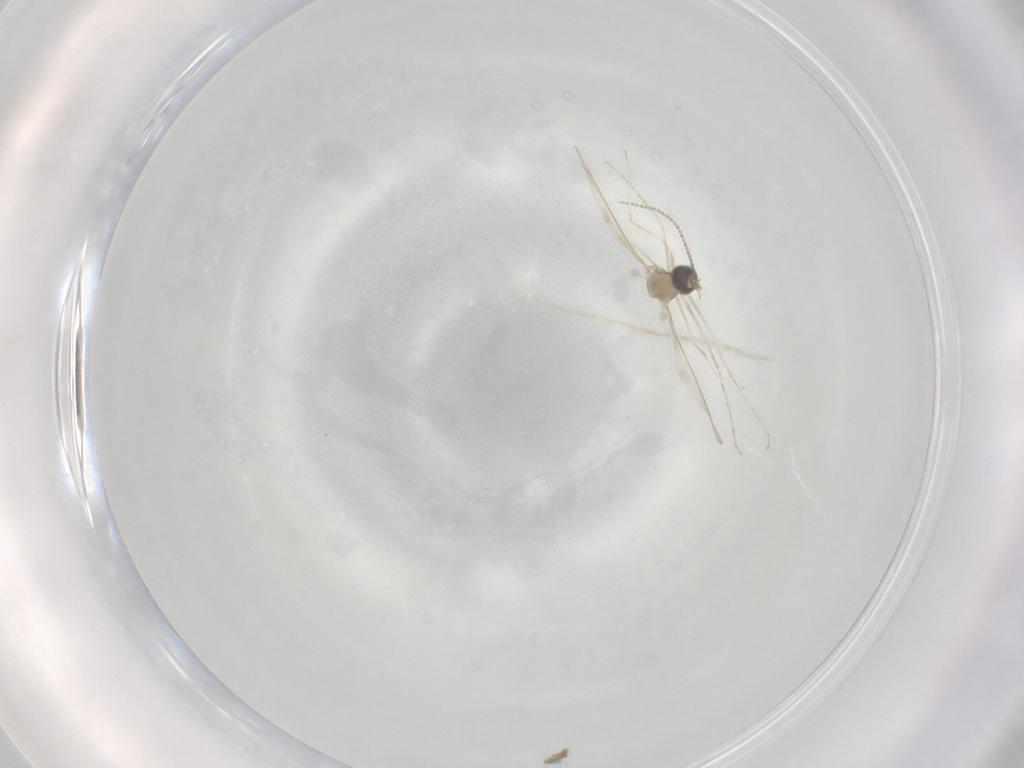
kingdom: Animalia
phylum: Arthropoda
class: Insecta
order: Diptera
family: Cecidomyiidae
